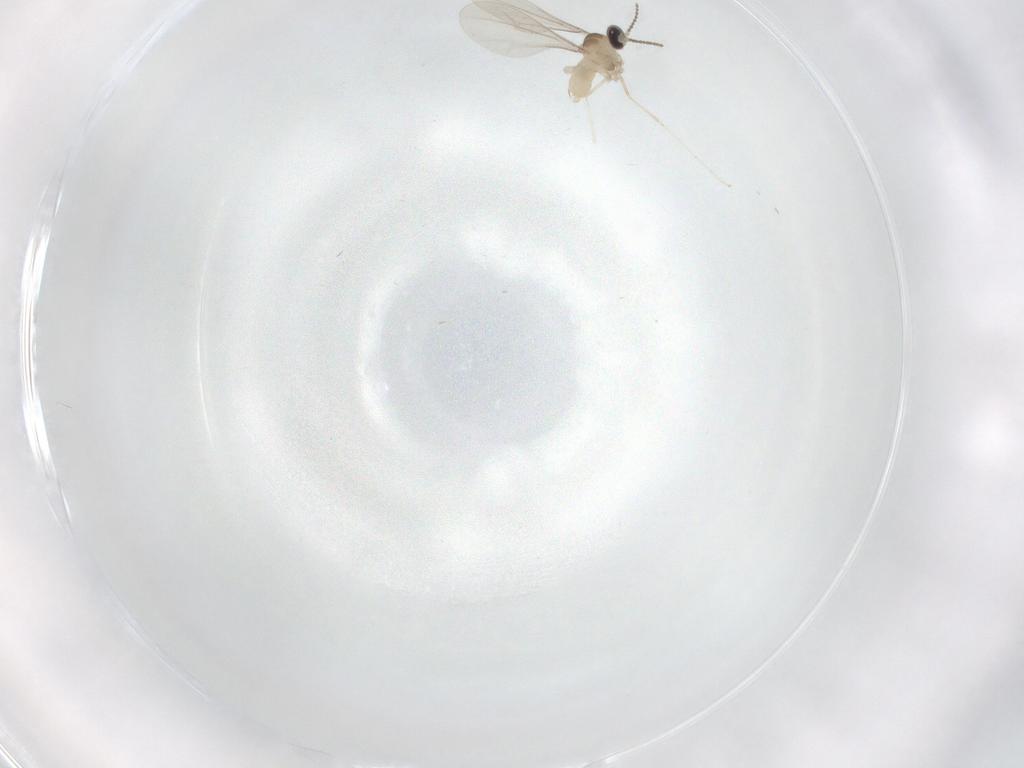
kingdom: Animalia
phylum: Arthropoda
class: Insecta
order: Diptera
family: Cecidomyiidae
